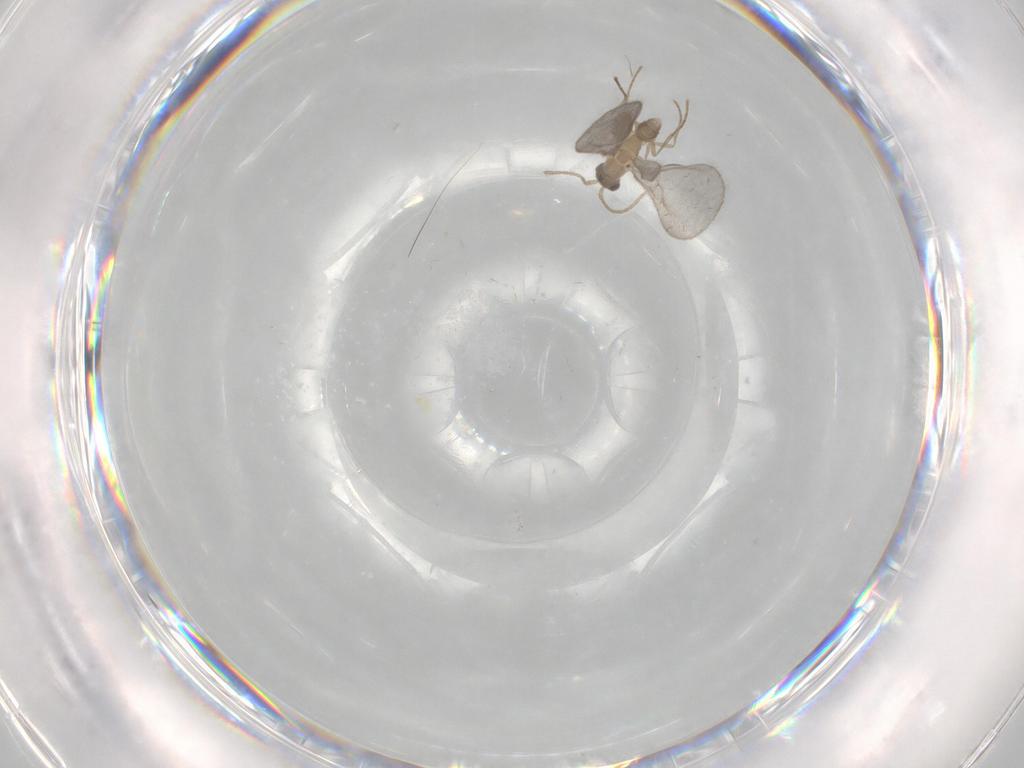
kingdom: Animalia
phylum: Arthropoda
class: Insecta
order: Hymenoptera
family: Formicidae
